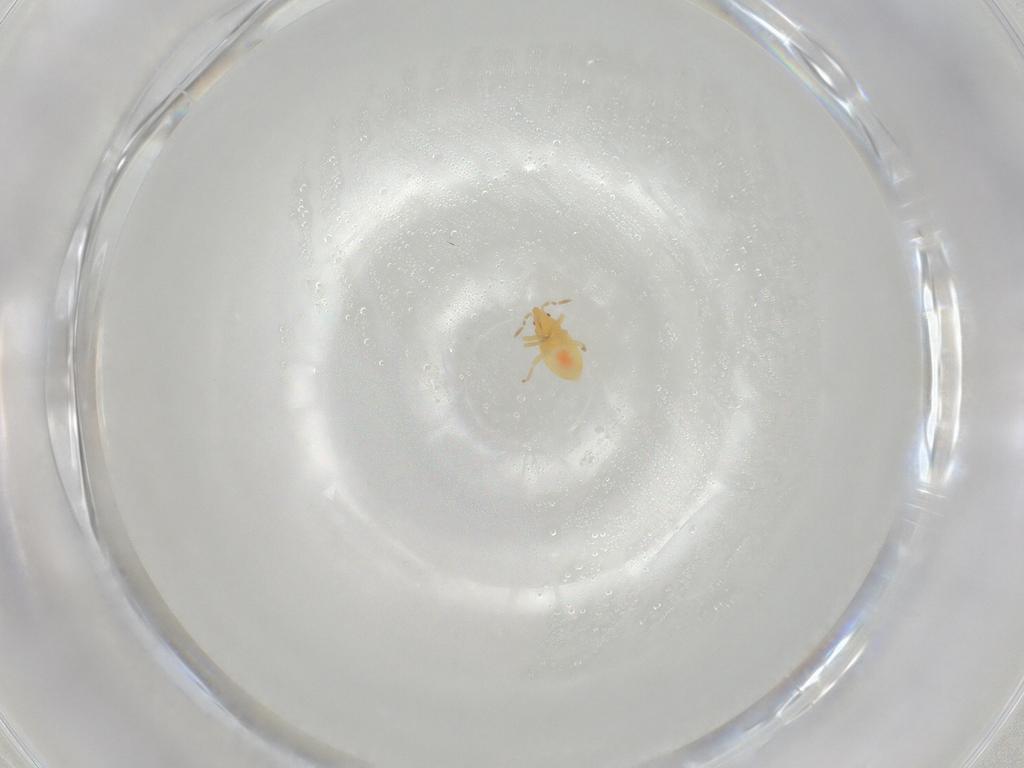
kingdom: Animalia
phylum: Arthropoda
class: Insecta
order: Hemiptera
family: Anthocoridae
